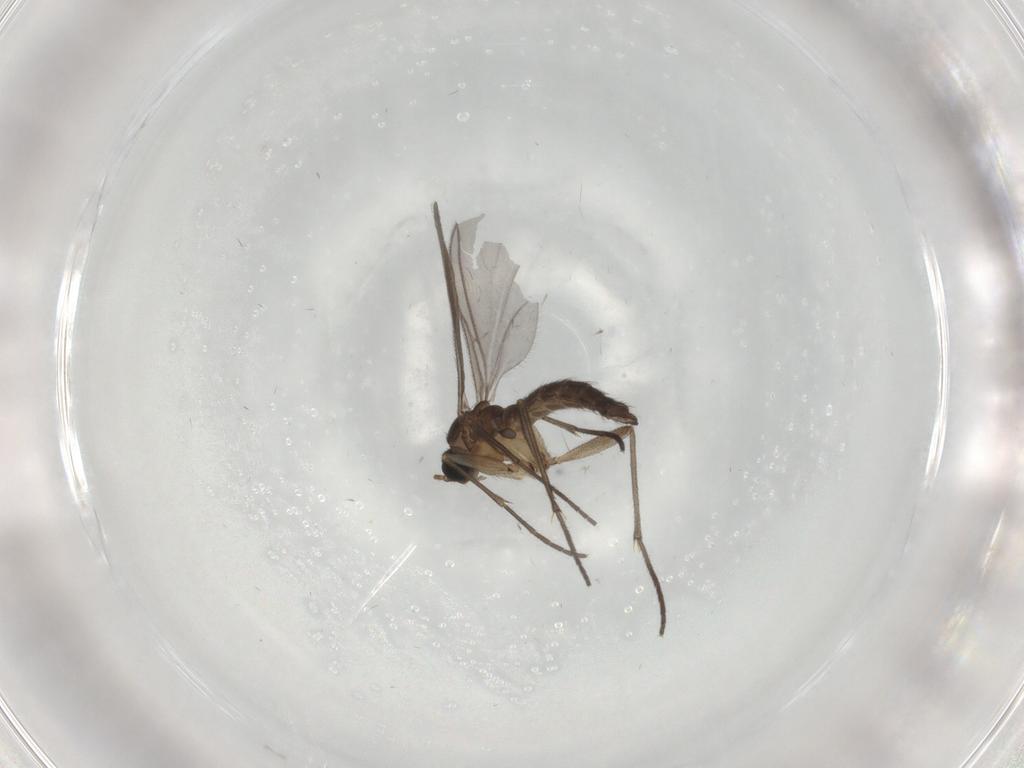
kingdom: Animalia
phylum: Arthropoda
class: Insecta
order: Diptera
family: Sciaridae
